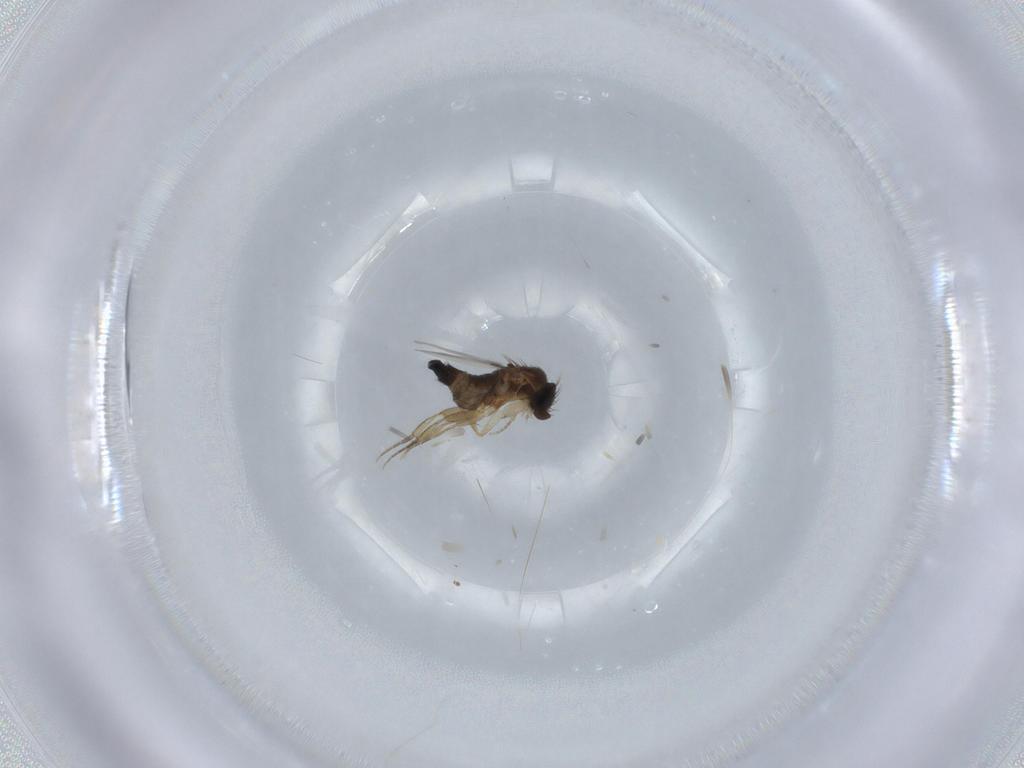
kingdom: Animalia
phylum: Arthropoda
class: Insecta
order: Diptera
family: Phoridae
